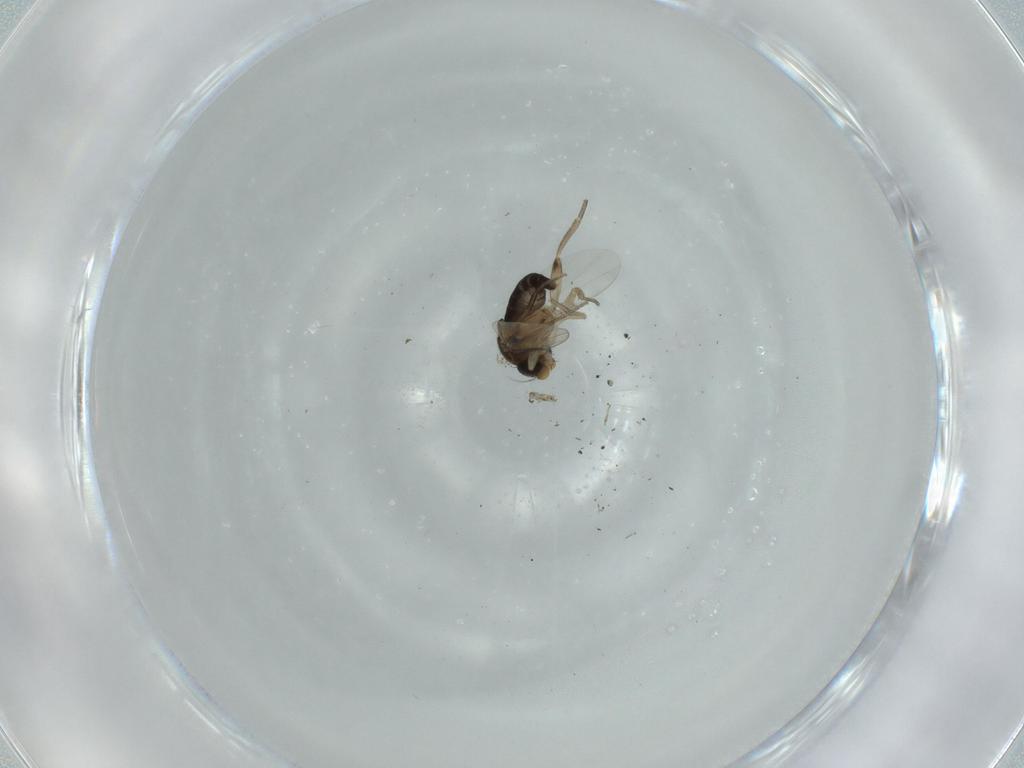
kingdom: Animalia
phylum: Arthropoda
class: Insecta
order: Diptera
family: Phoridae
